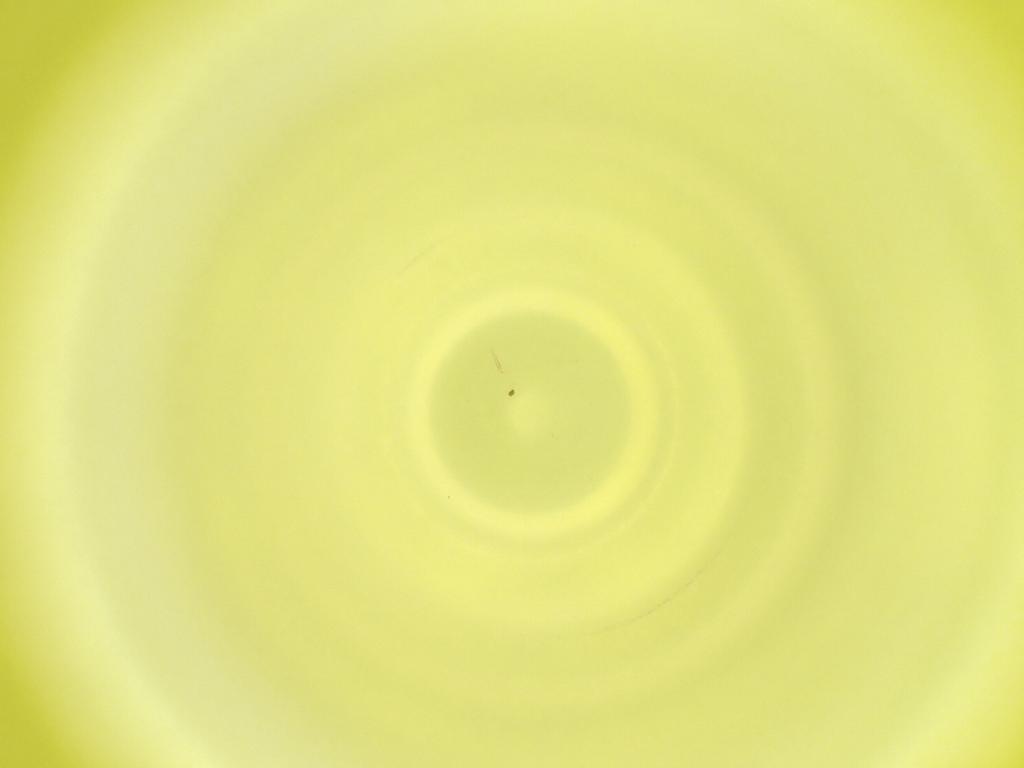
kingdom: Animalia
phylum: Arthropoda
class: Insecta
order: Diptera
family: Cecidomyiidae
